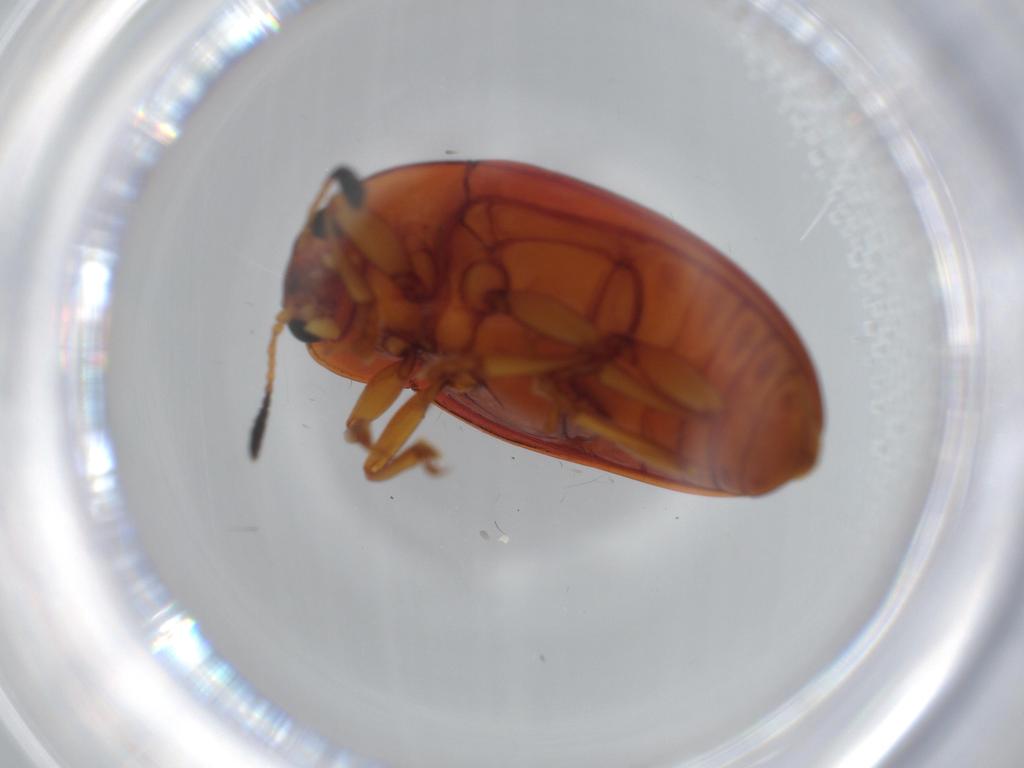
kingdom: Animalia
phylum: Arthropoda
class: Insecta
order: Coleoptera
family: Erotylidae
